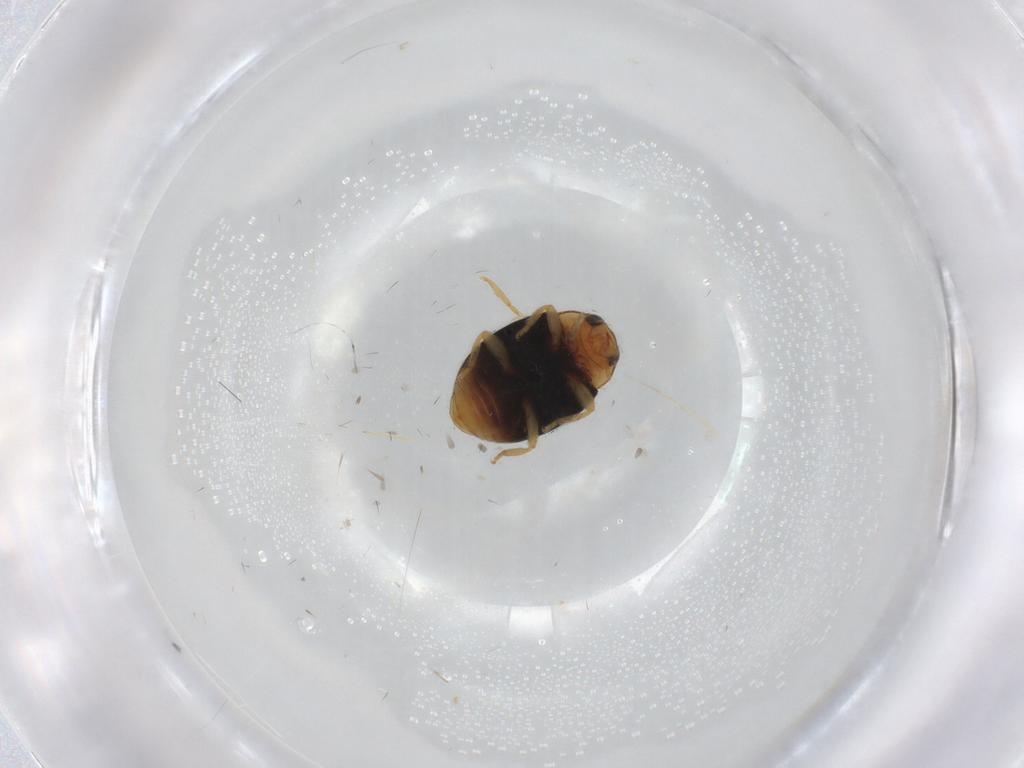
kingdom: Animalia
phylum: Arthropoda
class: Insecta
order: Coleoptera
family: Coccinellidae
